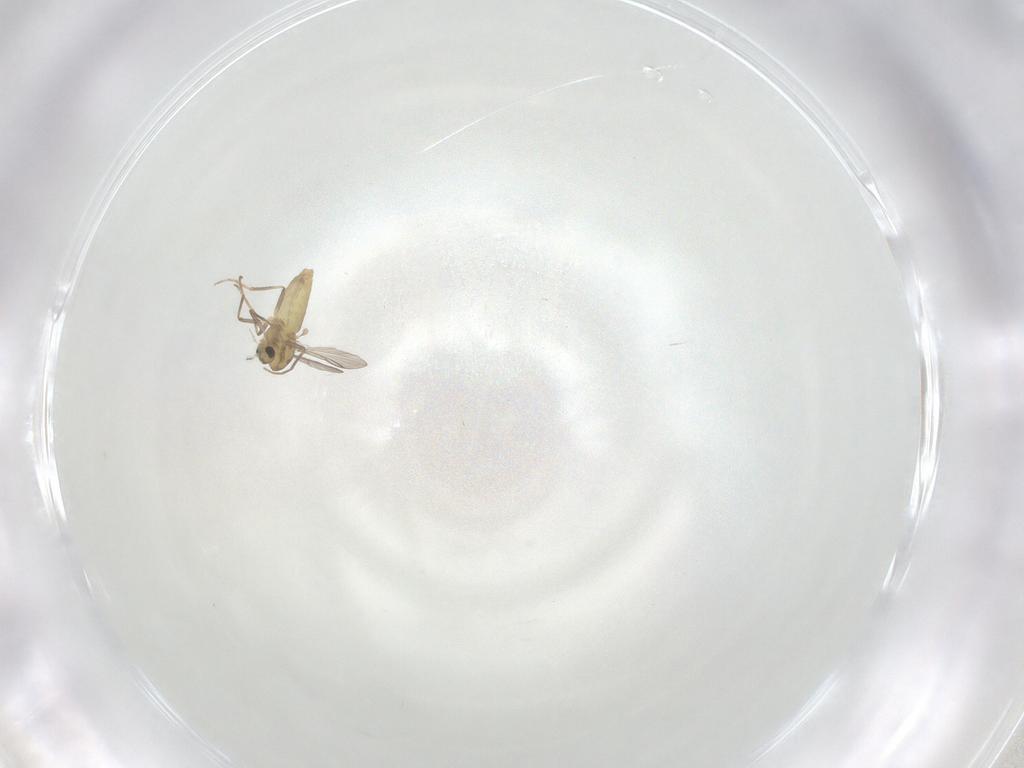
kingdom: Animalia
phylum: Arthropoda
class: Insecta
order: Diptera
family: Chironomidae
